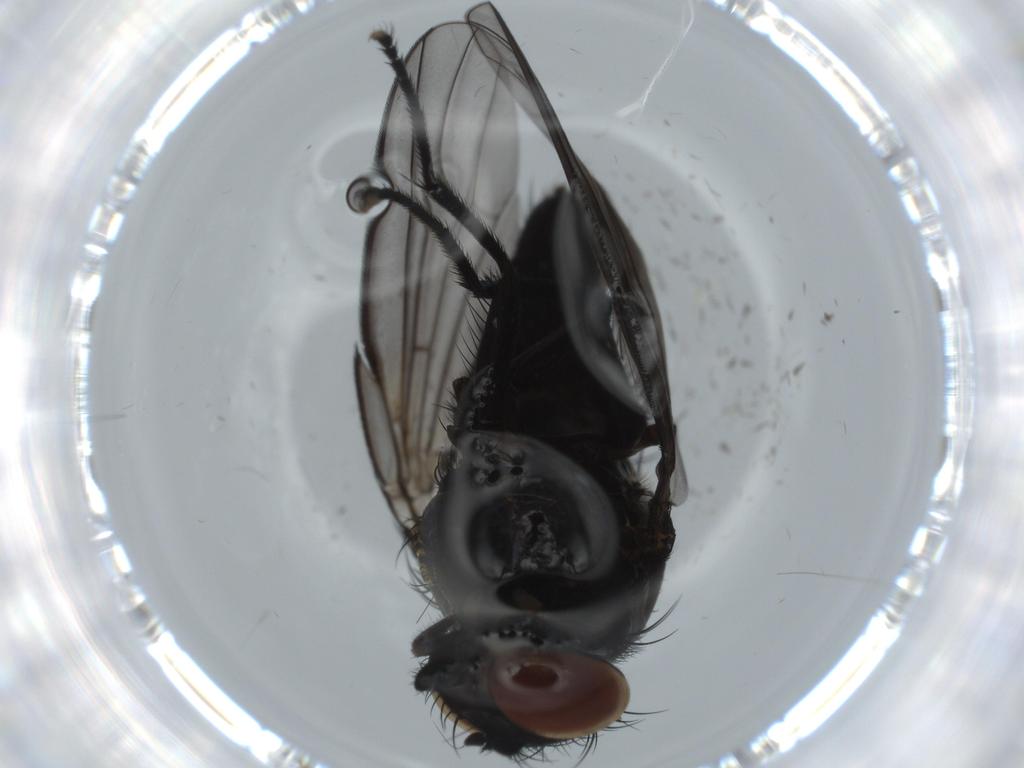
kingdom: Animalia
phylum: Arthropoda
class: Insecta
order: Diptera
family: Milichiidae
